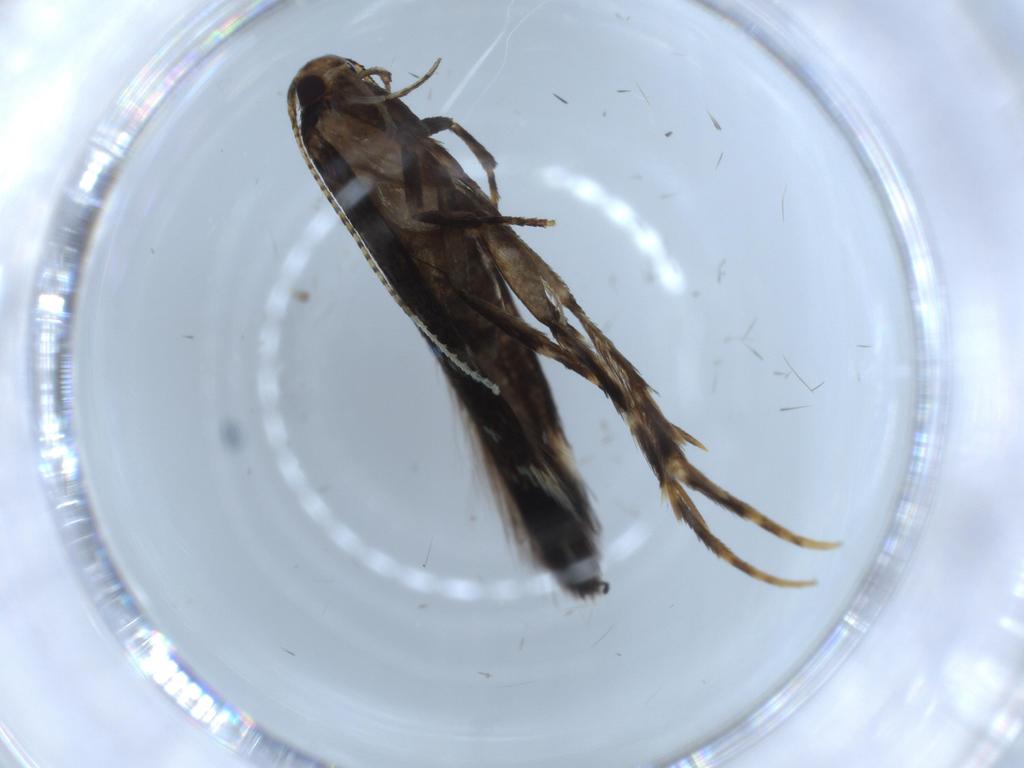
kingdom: Animalia
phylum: Arthropoda
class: Insecta
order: Lepidoptera
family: Cosmopterigidae
